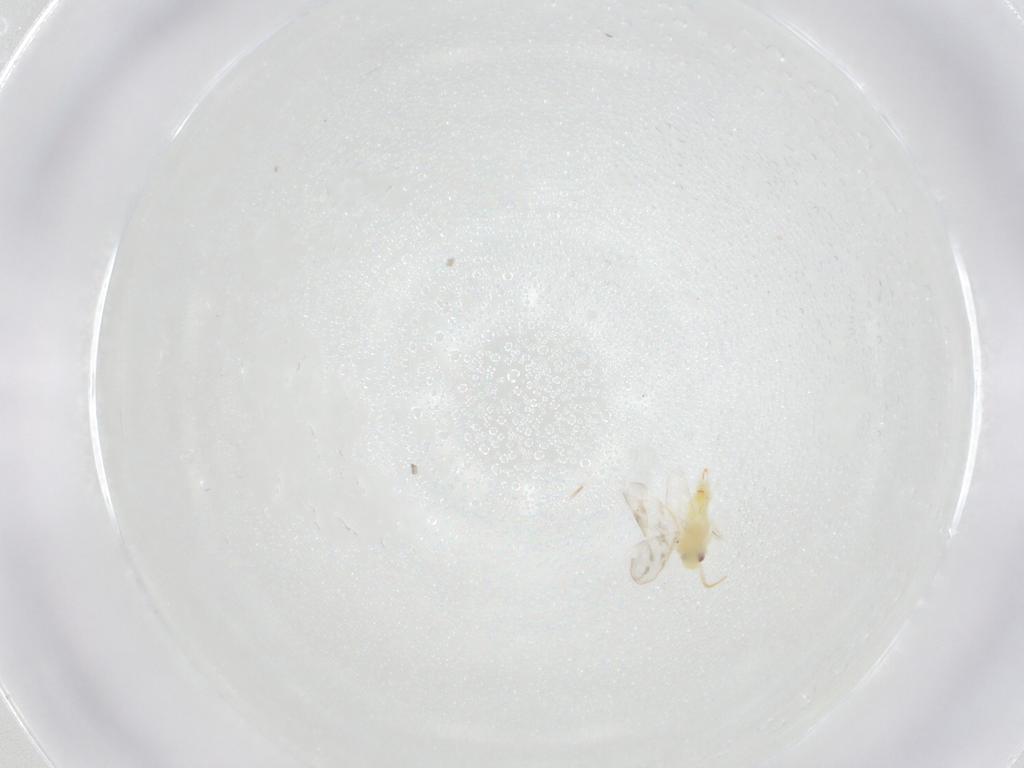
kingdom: Animalia
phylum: Arthropoda
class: Insecta
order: Hemiptera
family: Aleyrodidae
